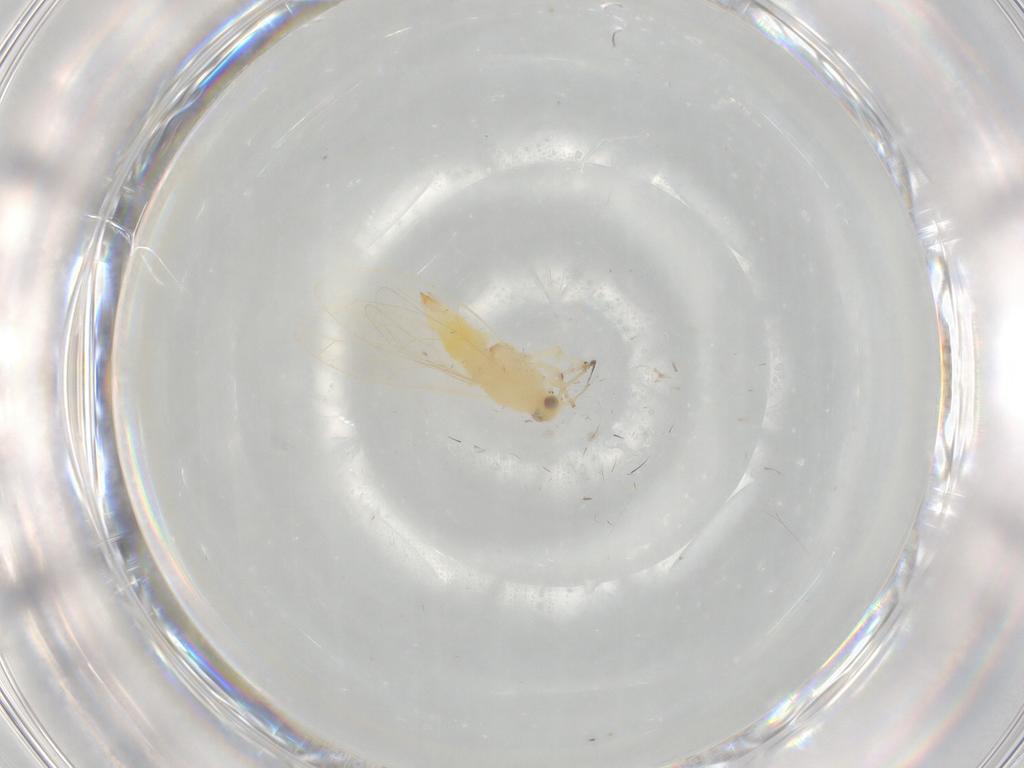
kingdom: Animalia
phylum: Arthropoda
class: Insecta
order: Hemiptera
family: Triozidae
